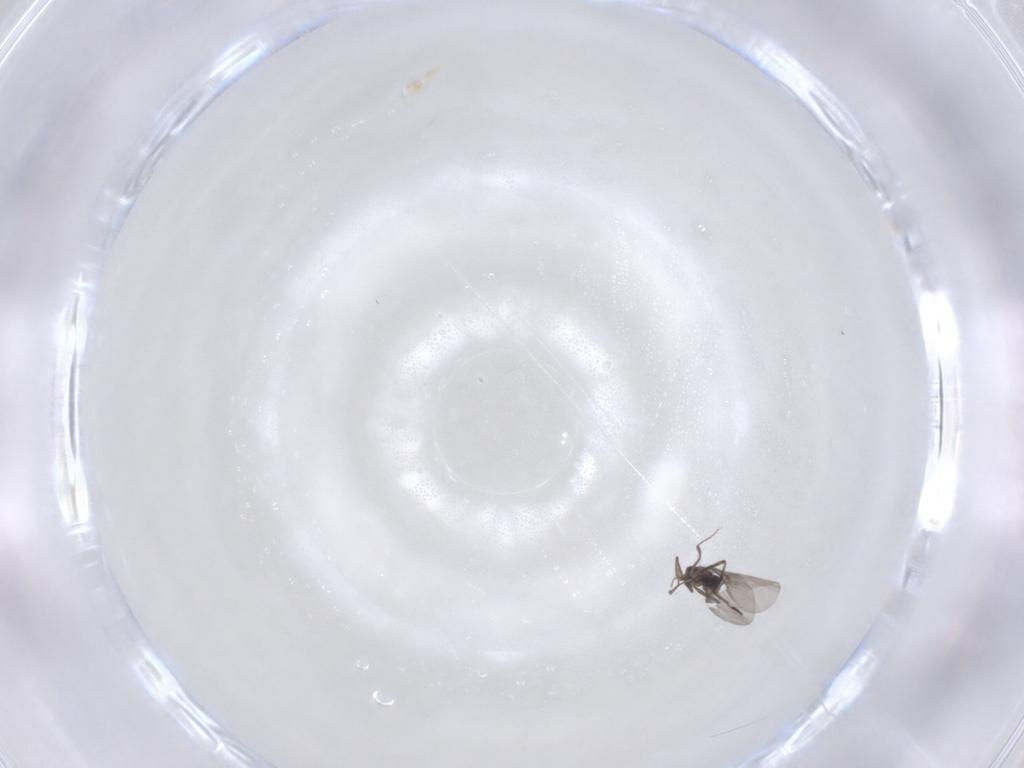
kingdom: Animalia
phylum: Arthropoda
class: Insecta
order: Diptera
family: Phoridae
